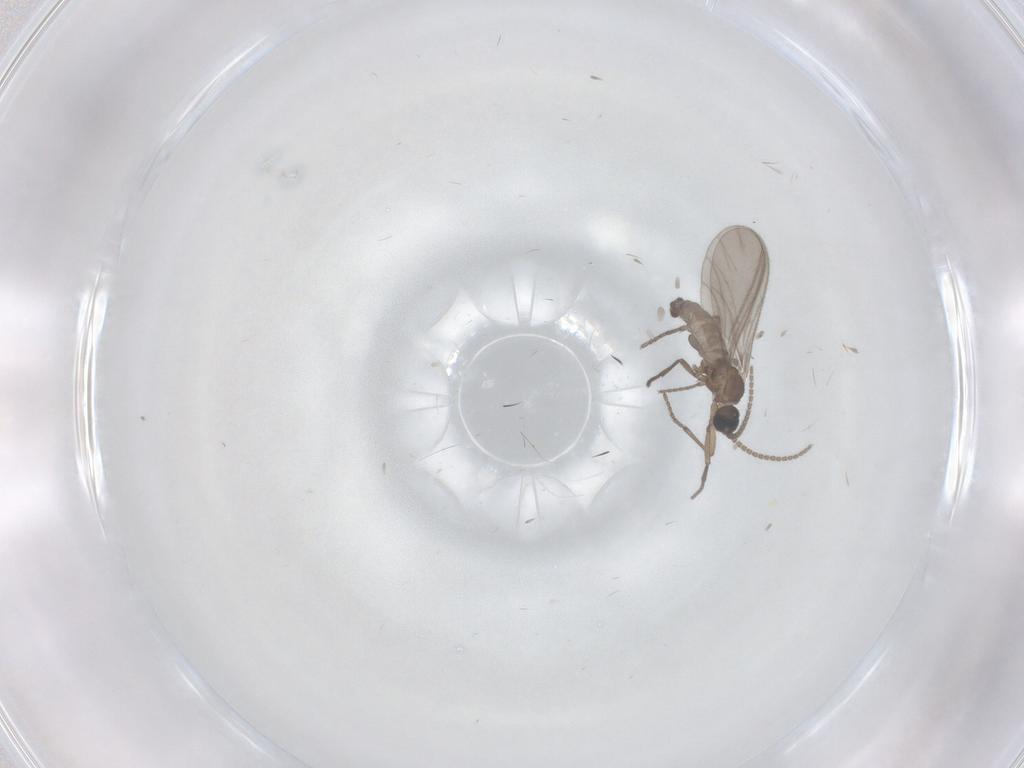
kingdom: Animalia
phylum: Arthropoda
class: Insecta
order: Diptera
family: Sciaridae
